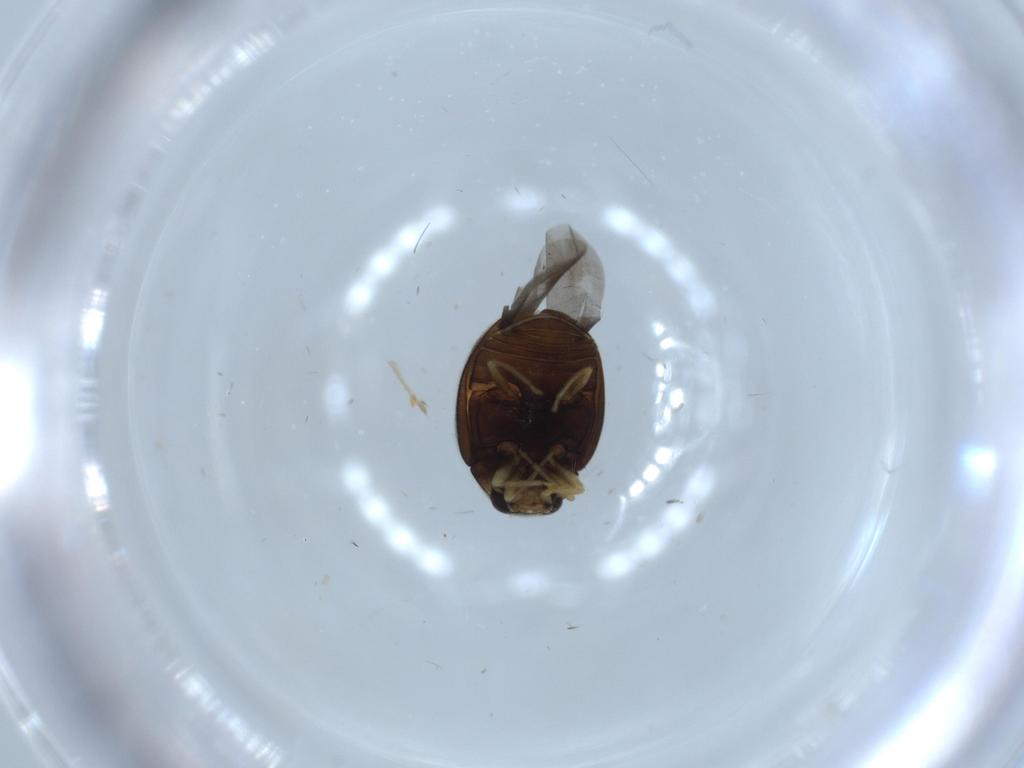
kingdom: Animalia
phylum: Arthropoda
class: Insecta
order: Coleoptera
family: Coccinellidae
